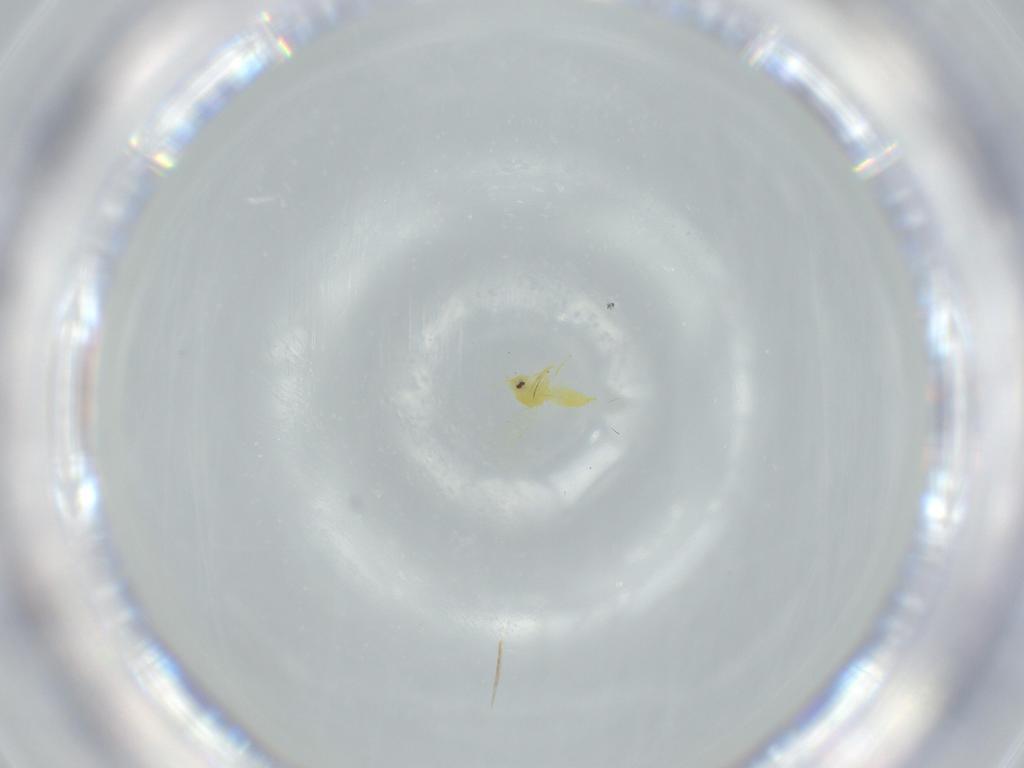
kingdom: Animalia
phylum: Arthropoda
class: Insecta
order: Hemiptera
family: Aleyrodidae
